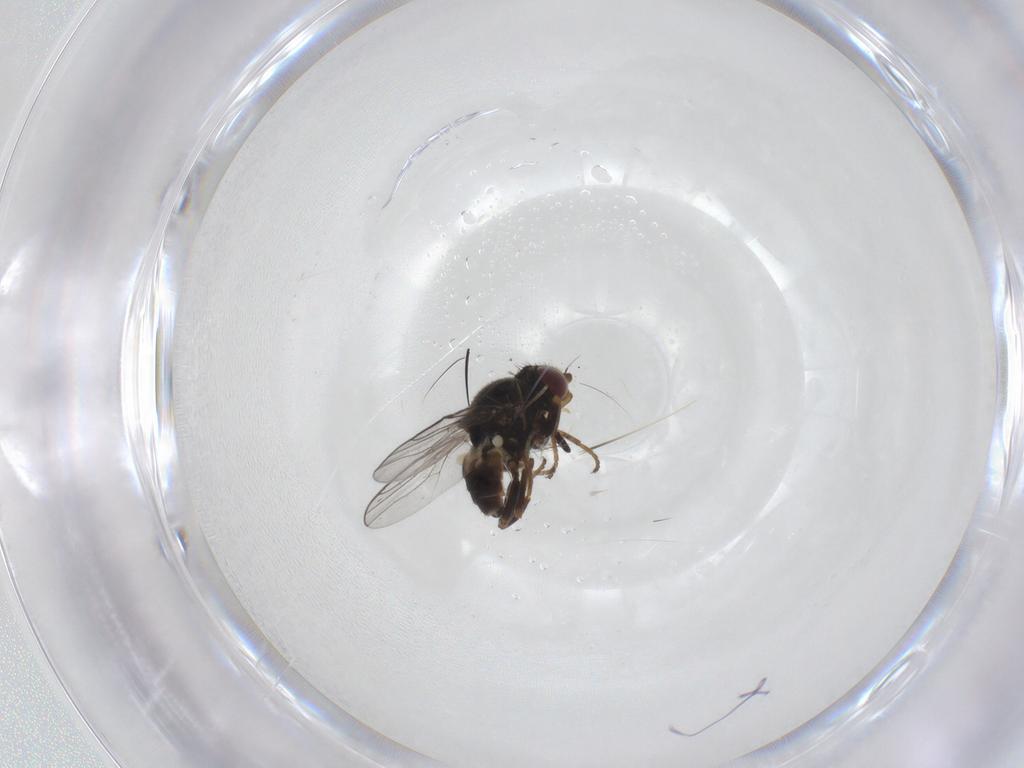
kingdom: Animalia
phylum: Arthropoda
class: Insecta
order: Diptera
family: Chloropidae
